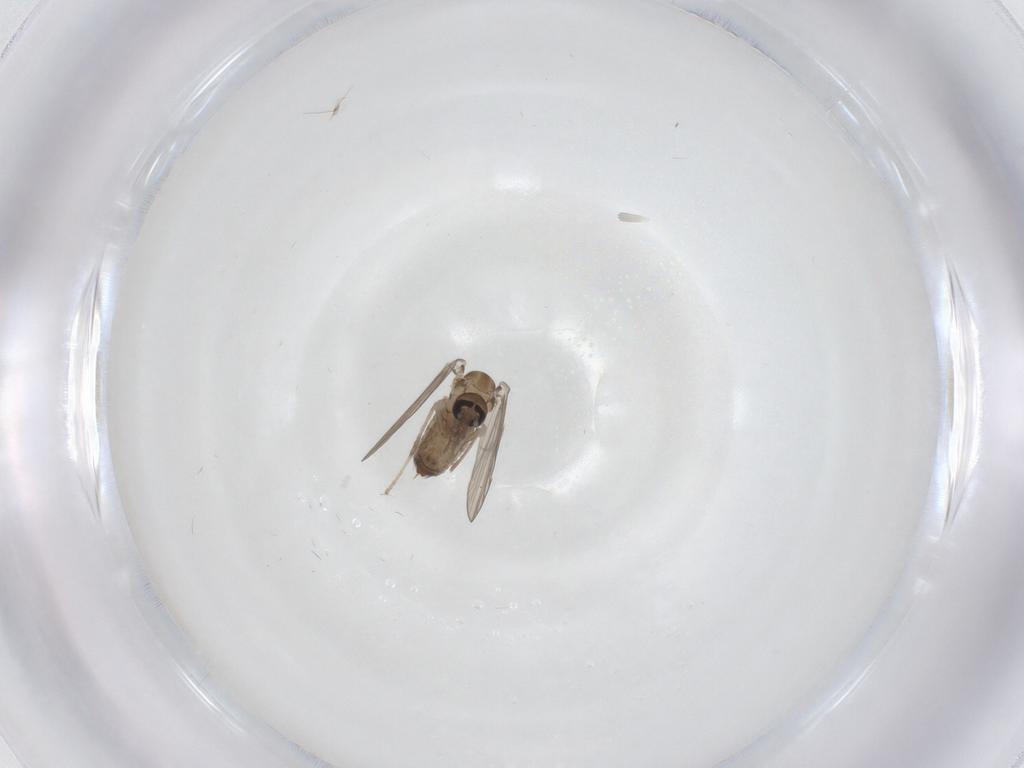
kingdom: Animalia
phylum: Arthropoda
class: Insecta
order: Diptera
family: Psychodidae
